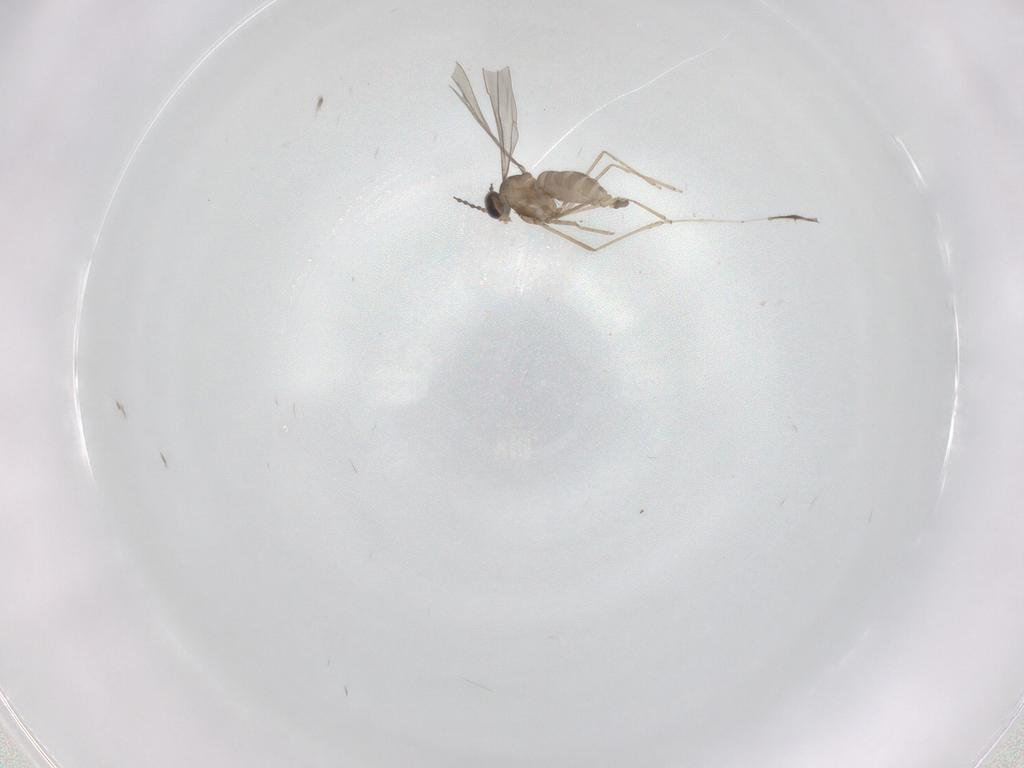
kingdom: Animalia
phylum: Arthropoda
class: Insecta
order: Diptera
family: Cecidomyiidae
